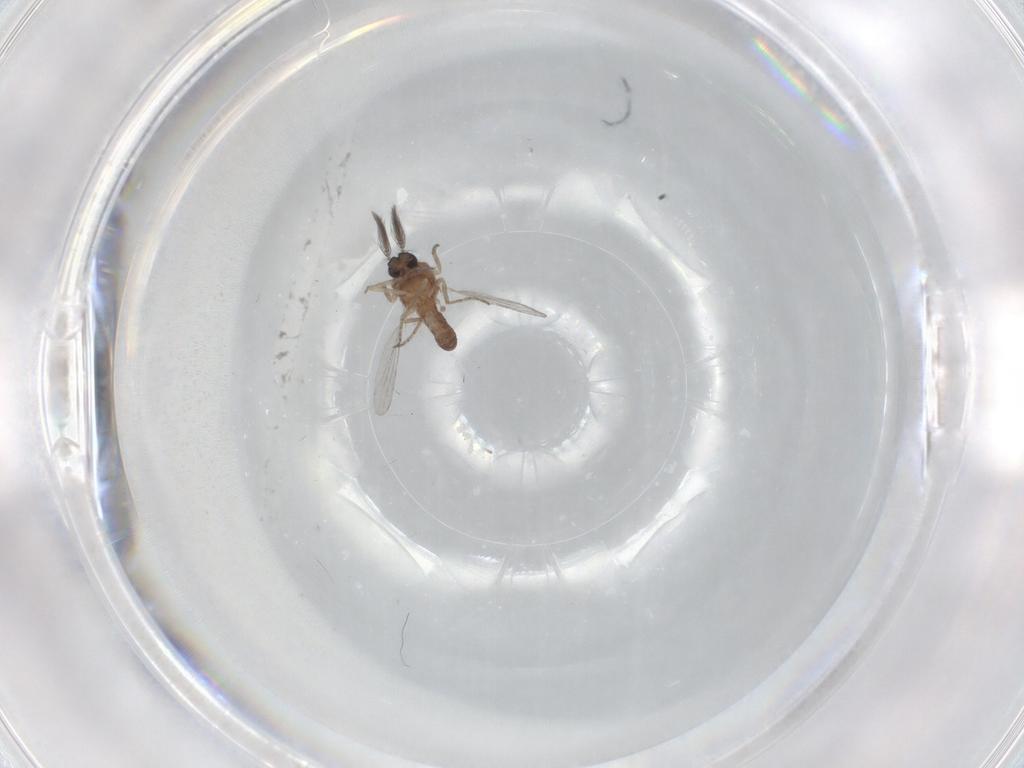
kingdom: Animalia
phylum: Arthropoda
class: Insecta
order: Diptera
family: Ceratopogonidae
